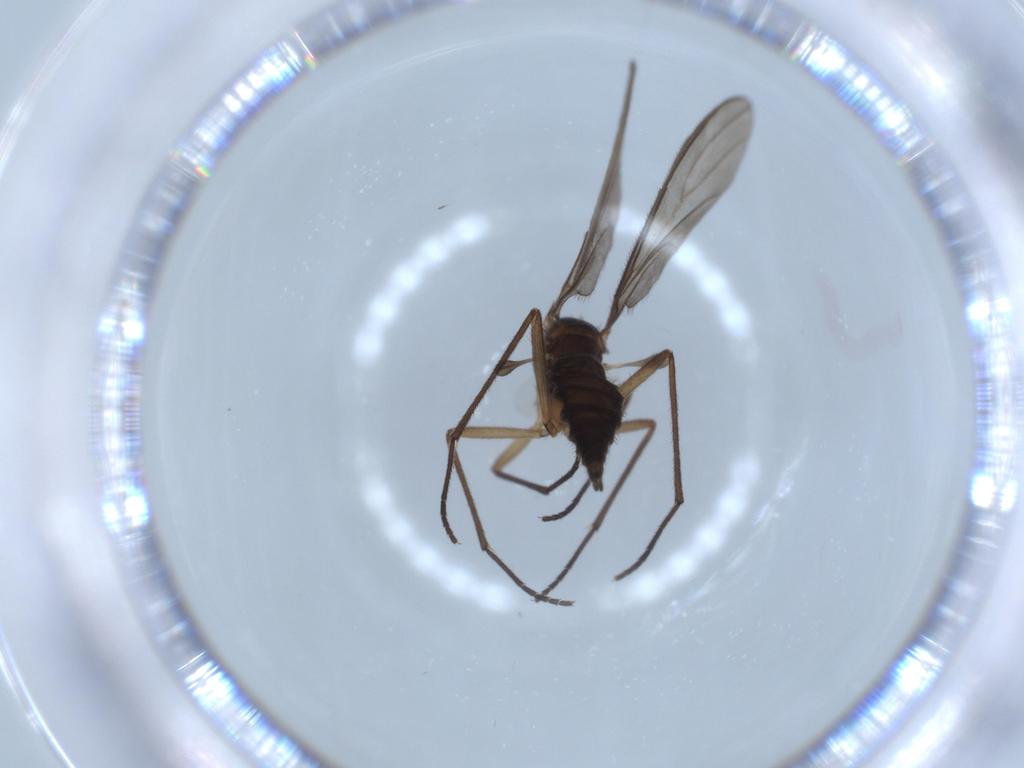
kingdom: Animalia
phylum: Arthropoda
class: Insecta
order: Diptera
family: Sciaridae
